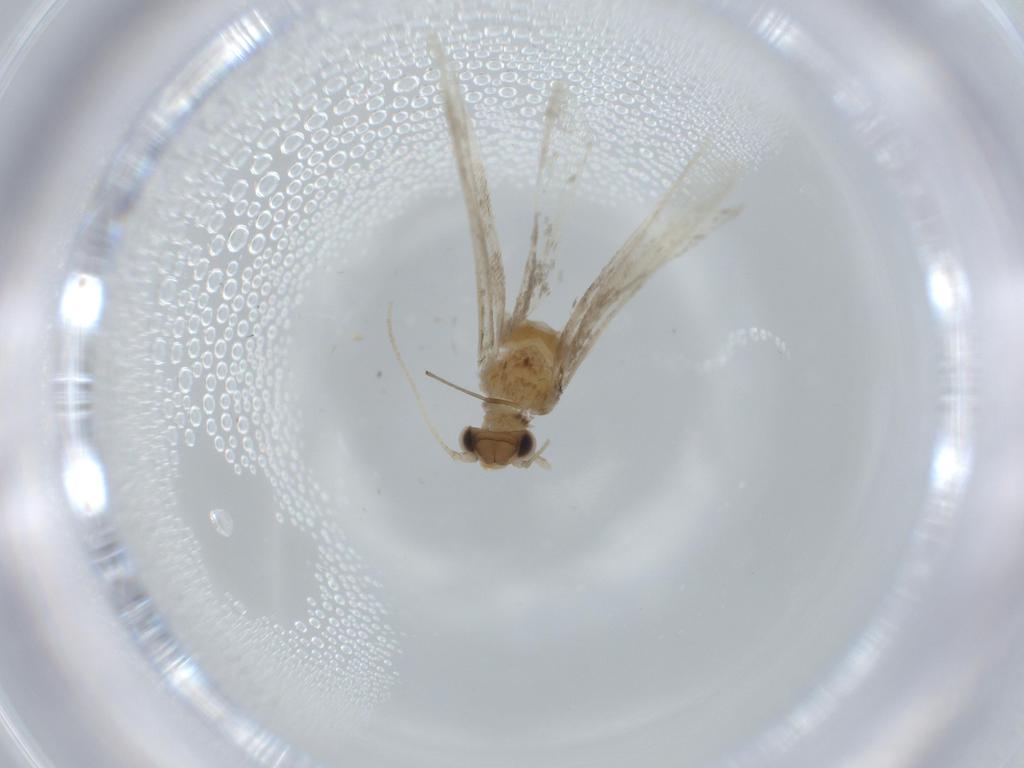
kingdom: Animalia
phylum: Arthropoda
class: Insecta
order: Lepidoptera
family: Tineidae
